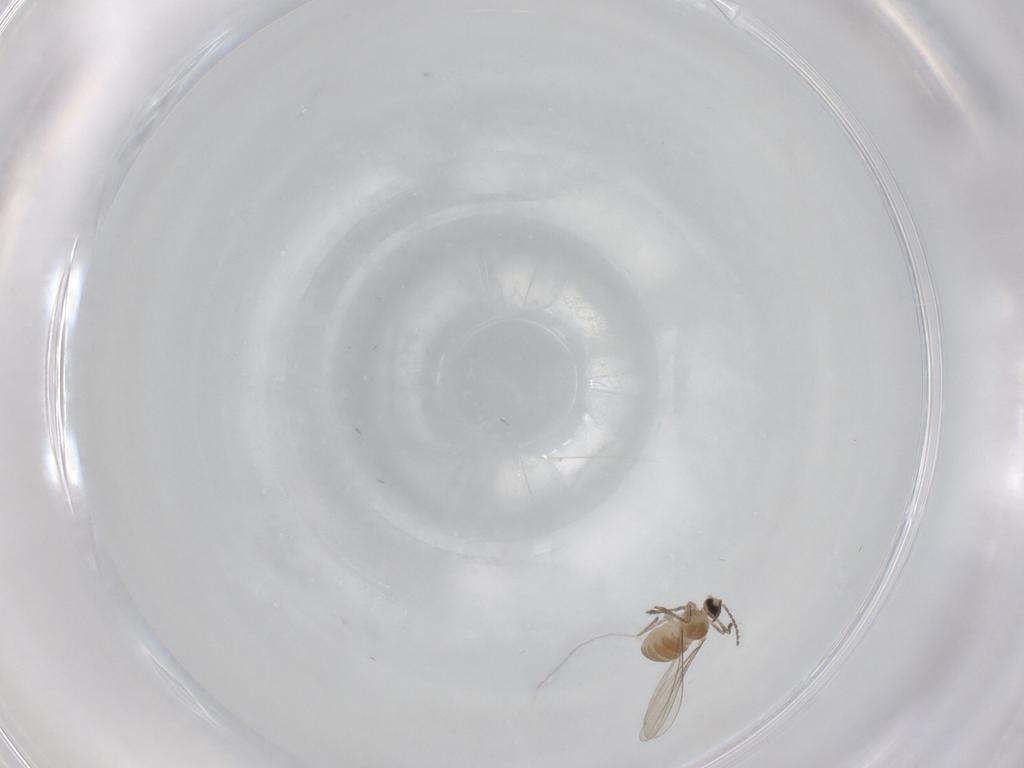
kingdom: Animalia
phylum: Arthropoda
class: Insecta
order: Diptera
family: Cecidomyiidae
